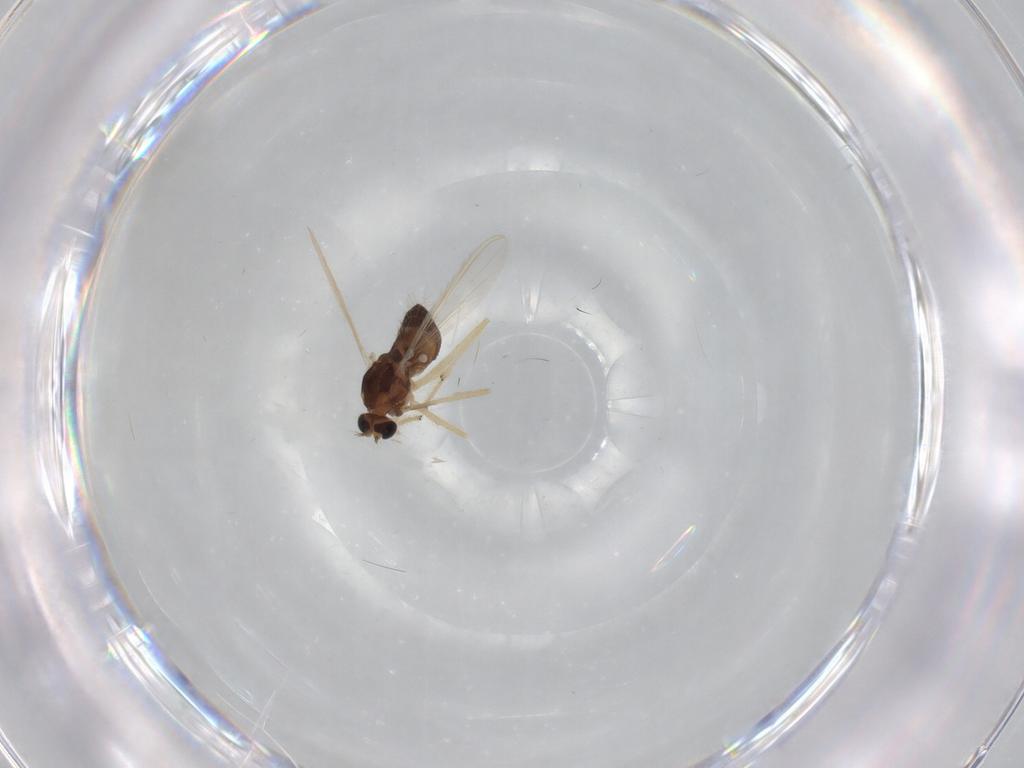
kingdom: Animalia
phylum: Arthropoda
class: Insecta
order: Diptera
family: Chironomidae
